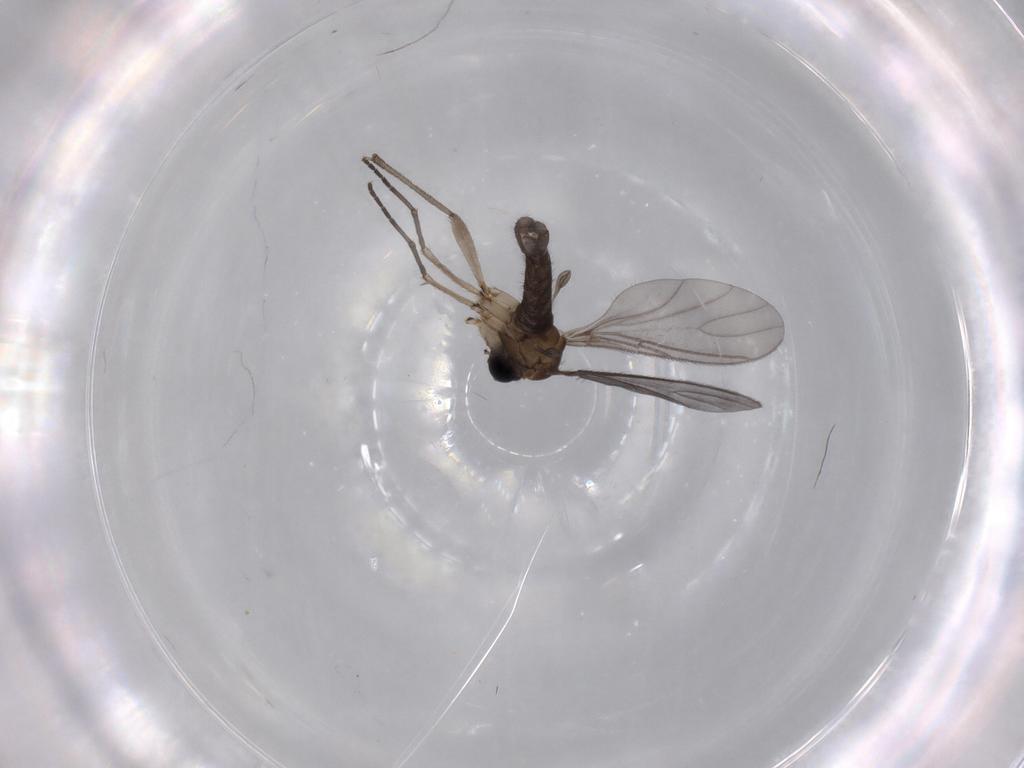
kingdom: Animalia
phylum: Arthropoda
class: Insecta
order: Diptera
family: Sciaridae
